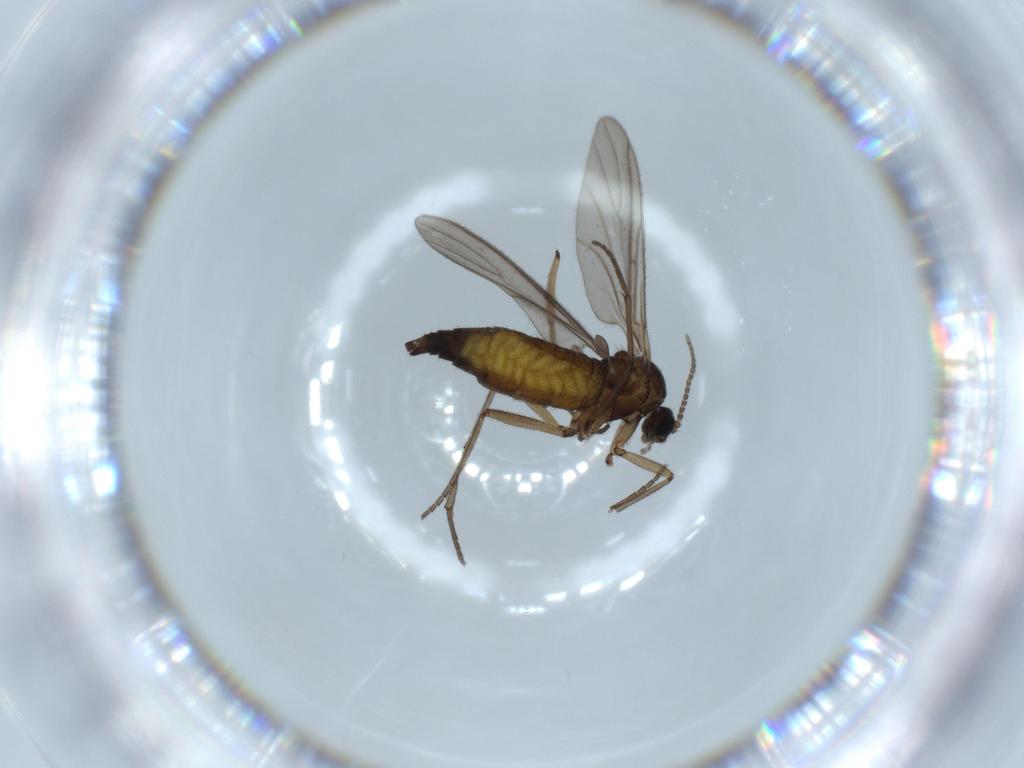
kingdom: Animalia
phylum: Arthropoda
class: Insecta
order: Diptera
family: Sciaridae
